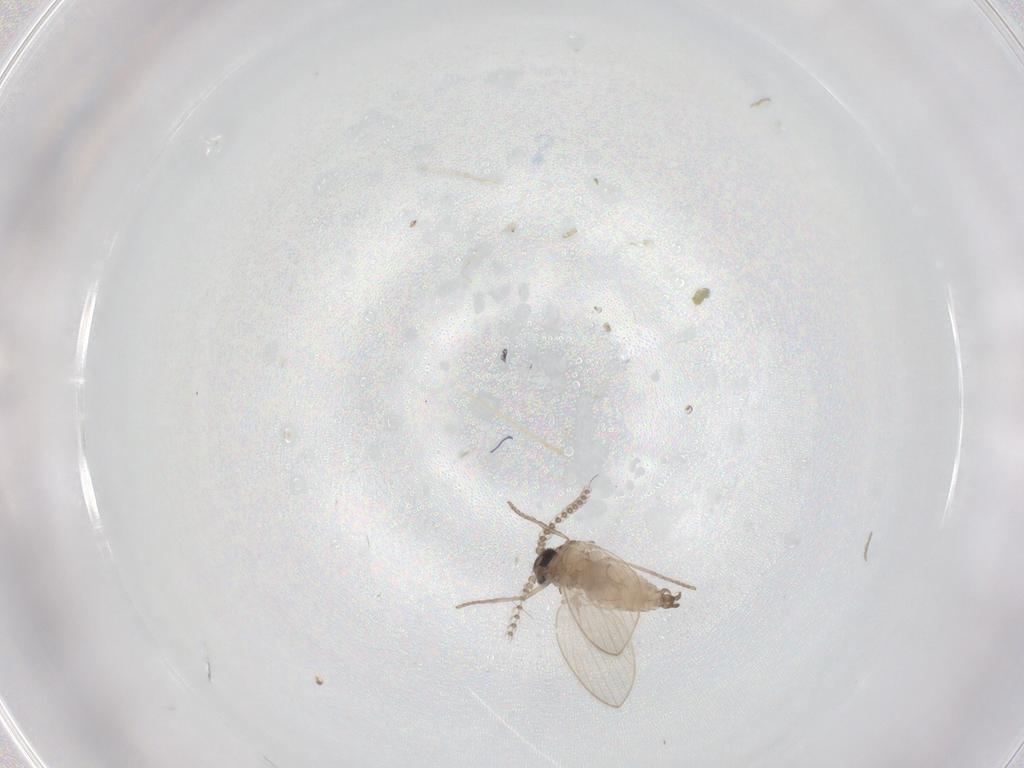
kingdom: Animalia
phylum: Arthropoda
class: Insecta
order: Diptera
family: Psychodidae
